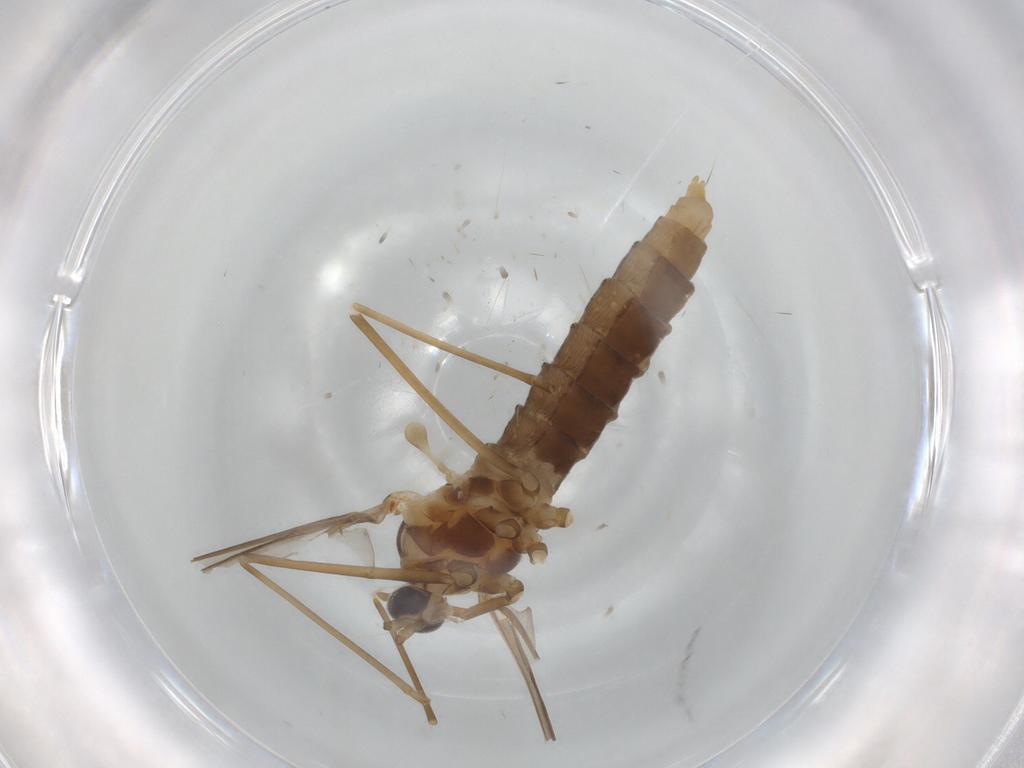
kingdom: Animalia
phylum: Arthropoda
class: Insecta
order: Diptera
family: Cecidomyiidae
